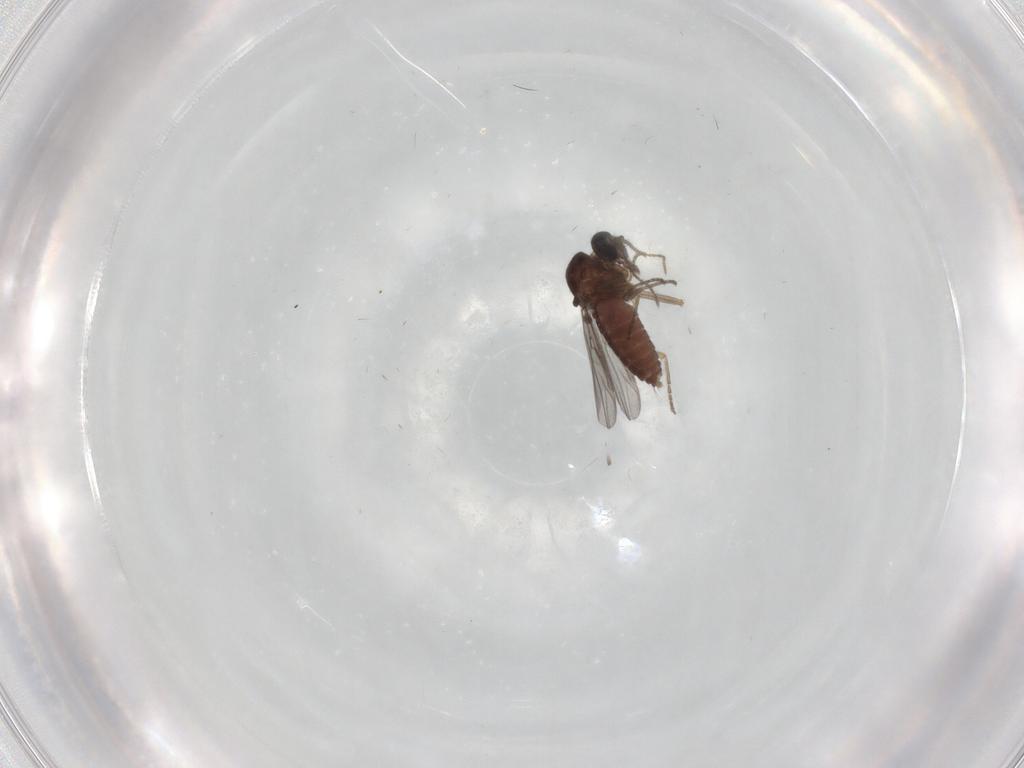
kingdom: Animalia
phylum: Arthropoda
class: Insecta
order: Diptera
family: Ceratopogonidae
